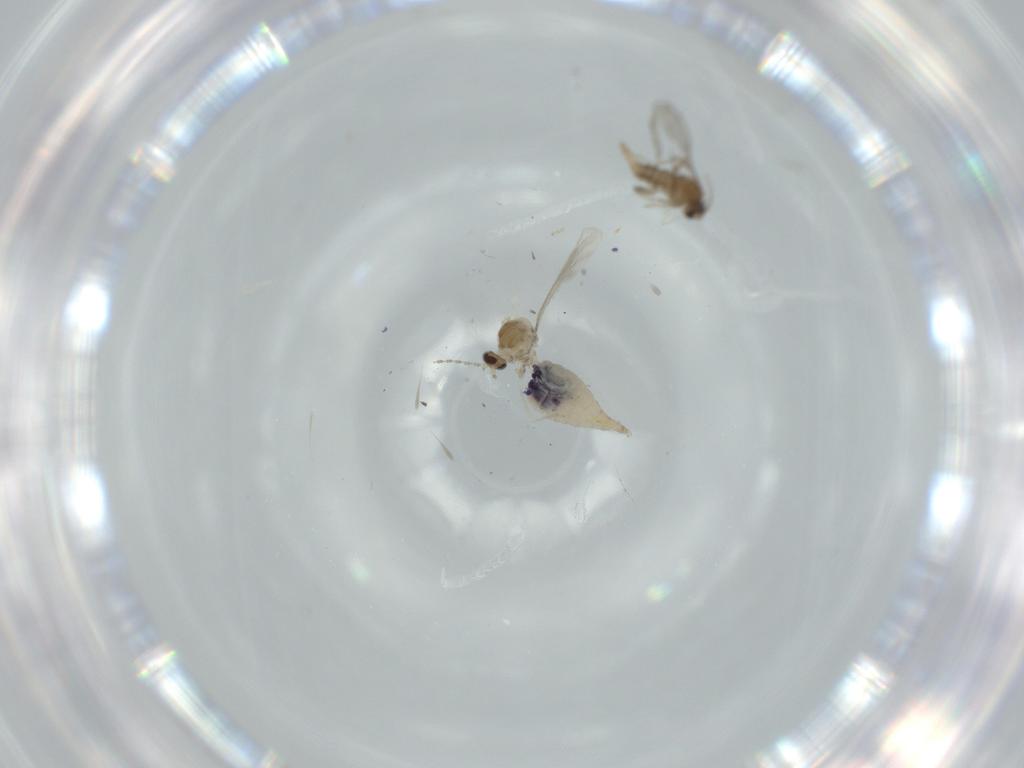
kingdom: Animalia
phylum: Arthropoda
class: Insecta
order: Diptera
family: Cecidomyiidae
